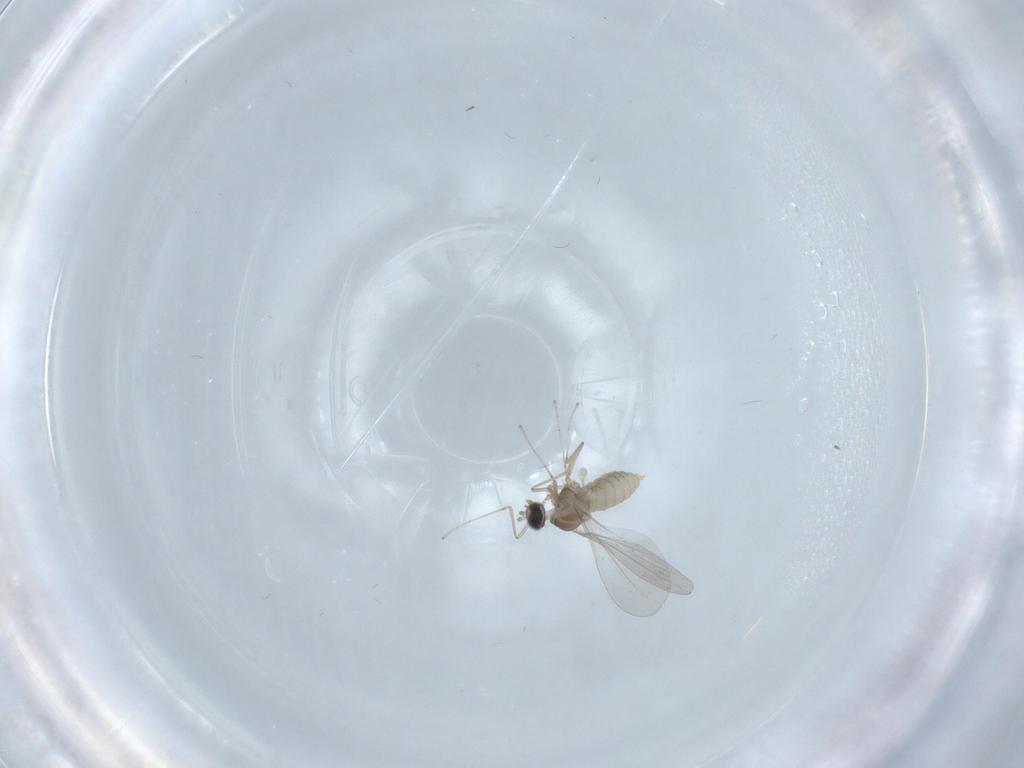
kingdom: Animalia
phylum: Arthropoda
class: Insecta
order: Diptera
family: Cecidomyiidae
